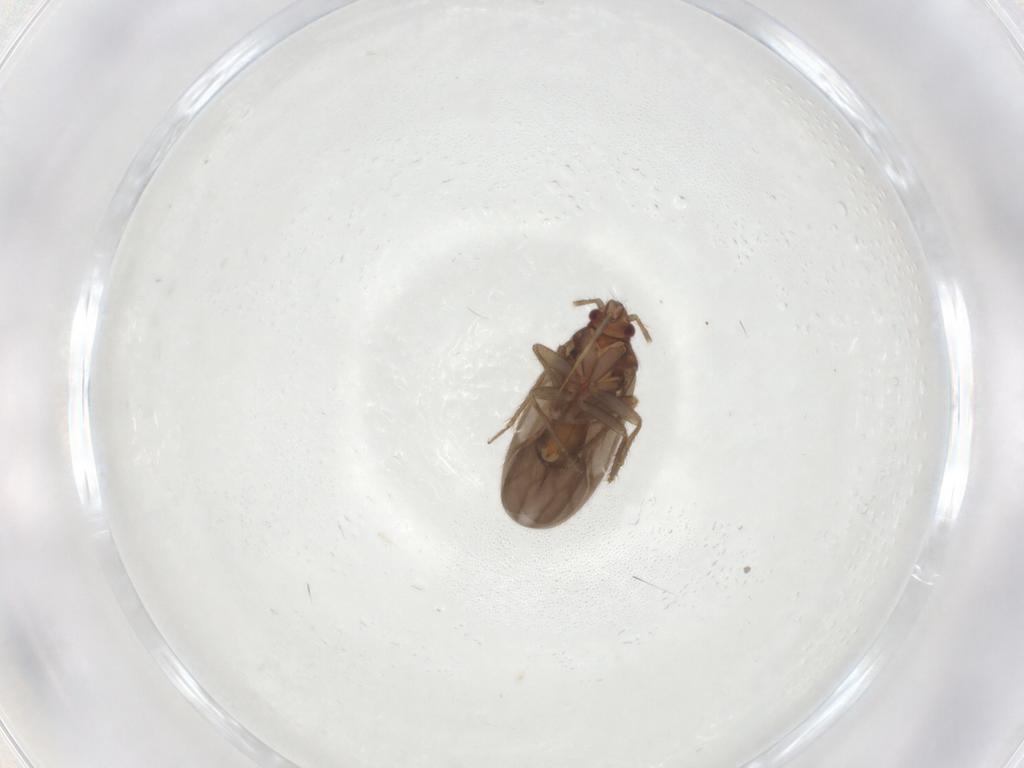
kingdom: Animalia
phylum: Arthropoda
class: Insecta
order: Hemiptera
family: Ceratocombidae
